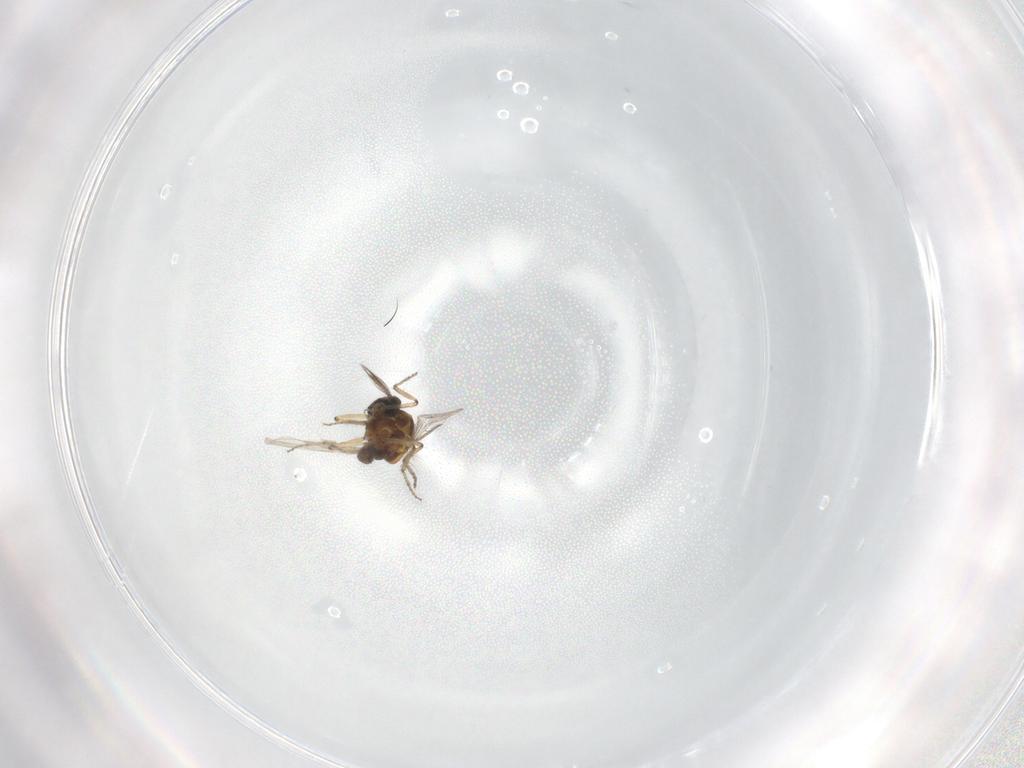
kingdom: Animalia
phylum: Arthropoda
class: Insecta
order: Diptera
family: Ceratopogonidae
